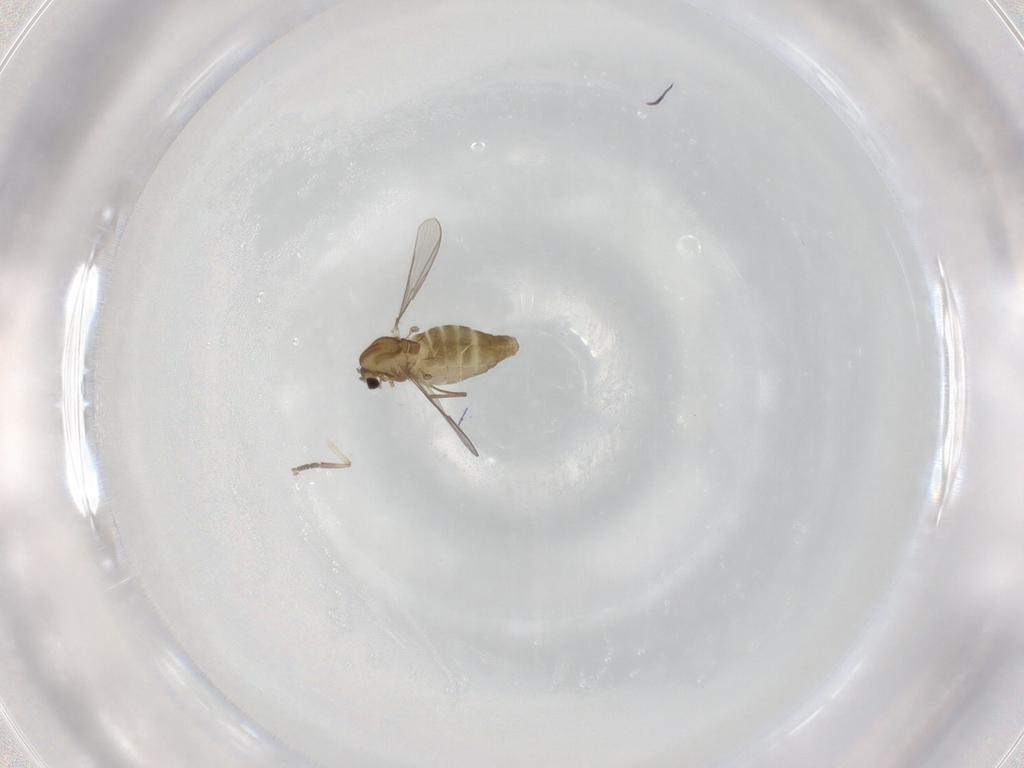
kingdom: Animalia
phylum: Arthropoda
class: Insecta
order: Diptera
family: Chironomidae
